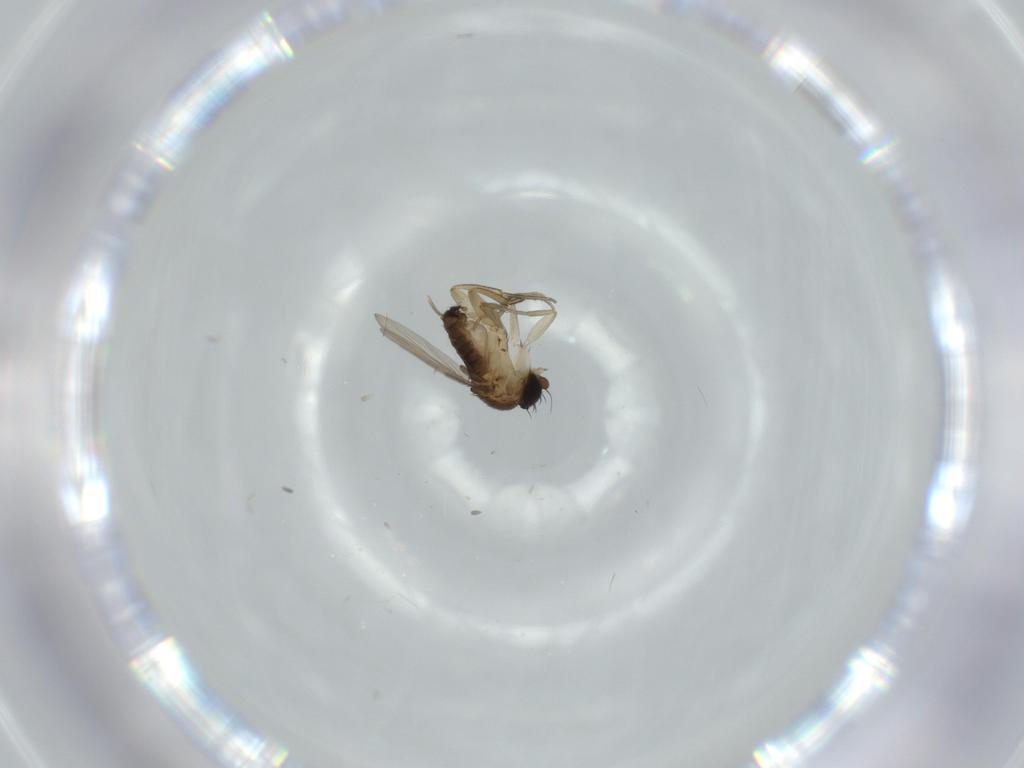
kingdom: Animalia
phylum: Arthropoda
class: Insecta
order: Diptera
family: Phoridae
